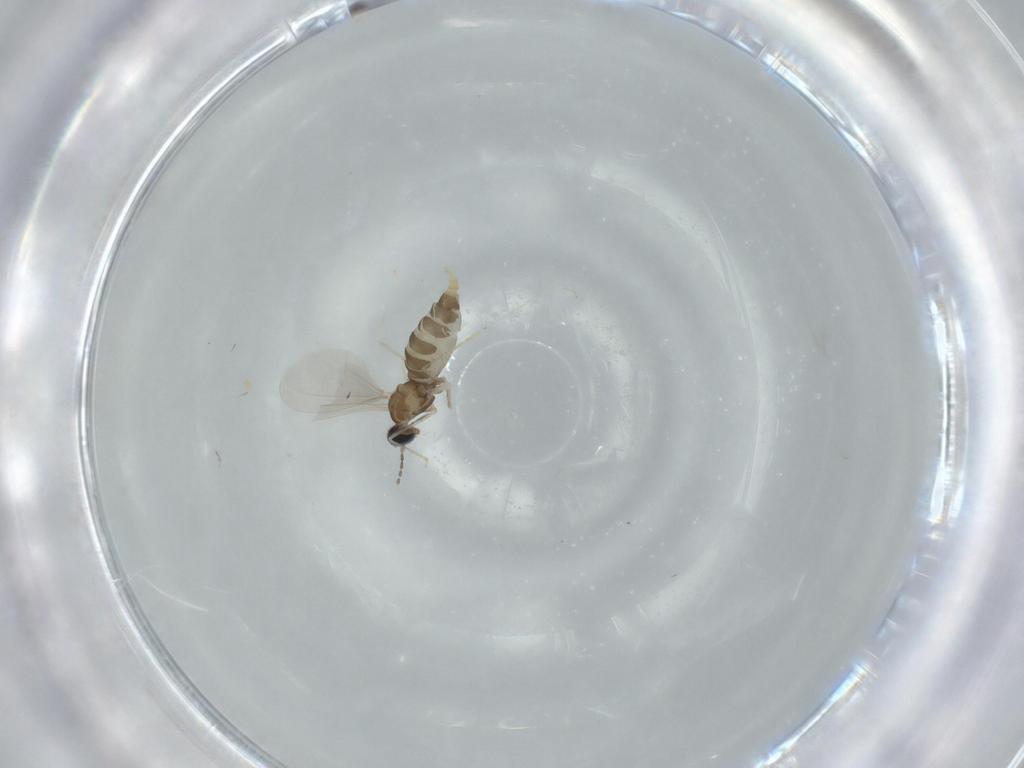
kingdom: Animalia
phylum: Arthropoda
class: Insecta
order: Diptera
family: Cecidomyiidae
